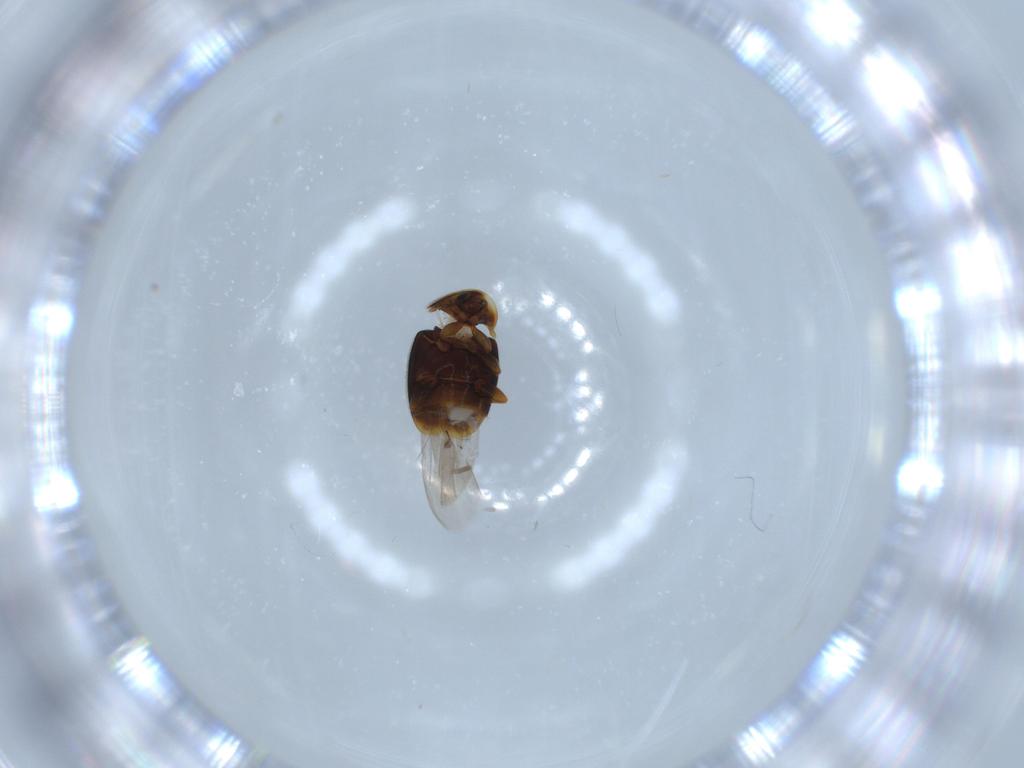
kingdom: Animalia
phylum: Arthropoda
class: Insecta
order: Coleoptera
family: Corylophidae
